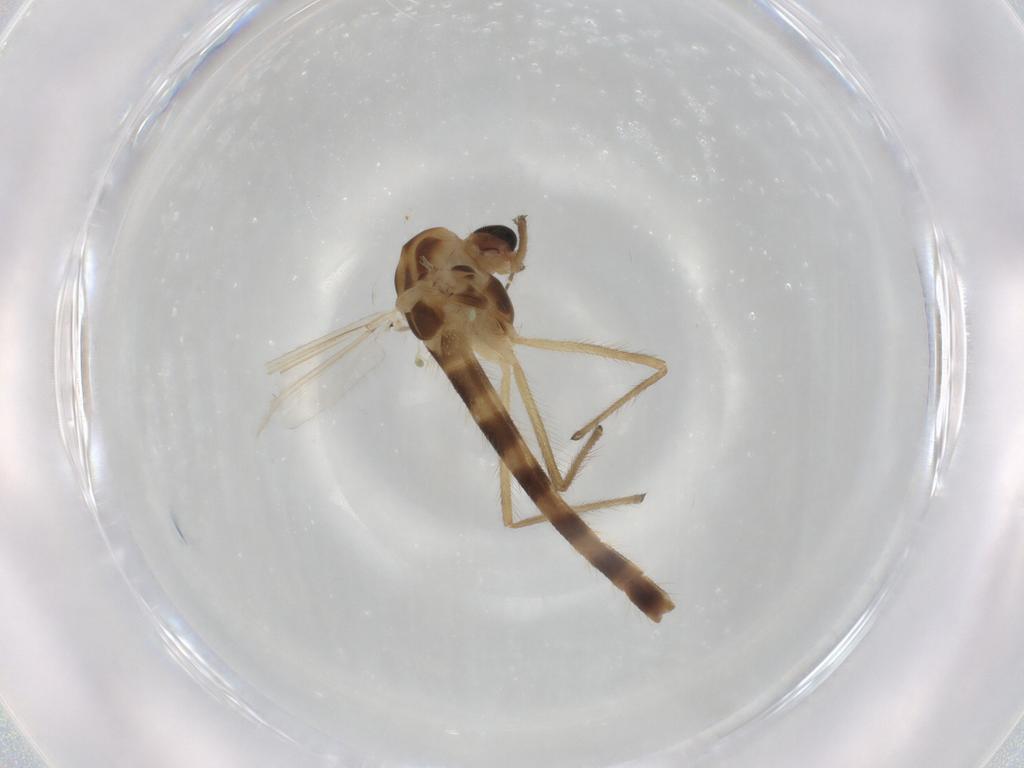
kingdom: Animalia
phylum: Arthropoda
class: Insecta
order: Diptera
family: Chironomidae
